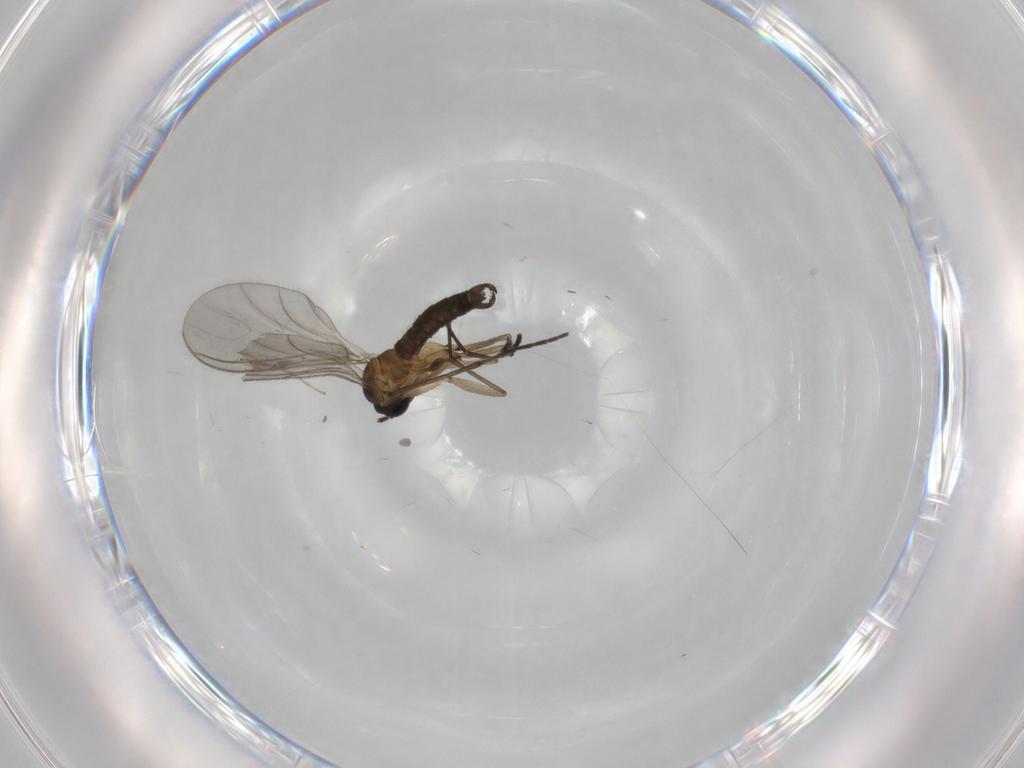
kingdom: Animalia
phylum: Arthropoda
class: Insecta
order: Diptera
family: Sciaridae
